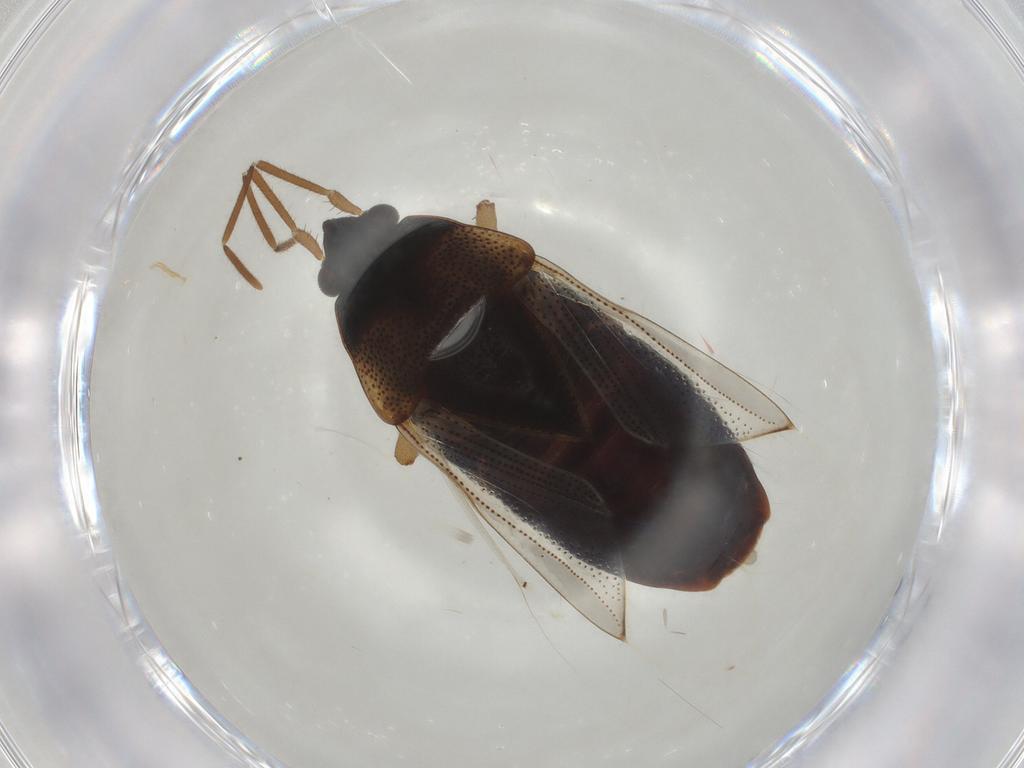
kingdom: Animalia
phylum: Arthropoda
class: Insecta
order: Hemiptera
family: Rhyparochromidae
